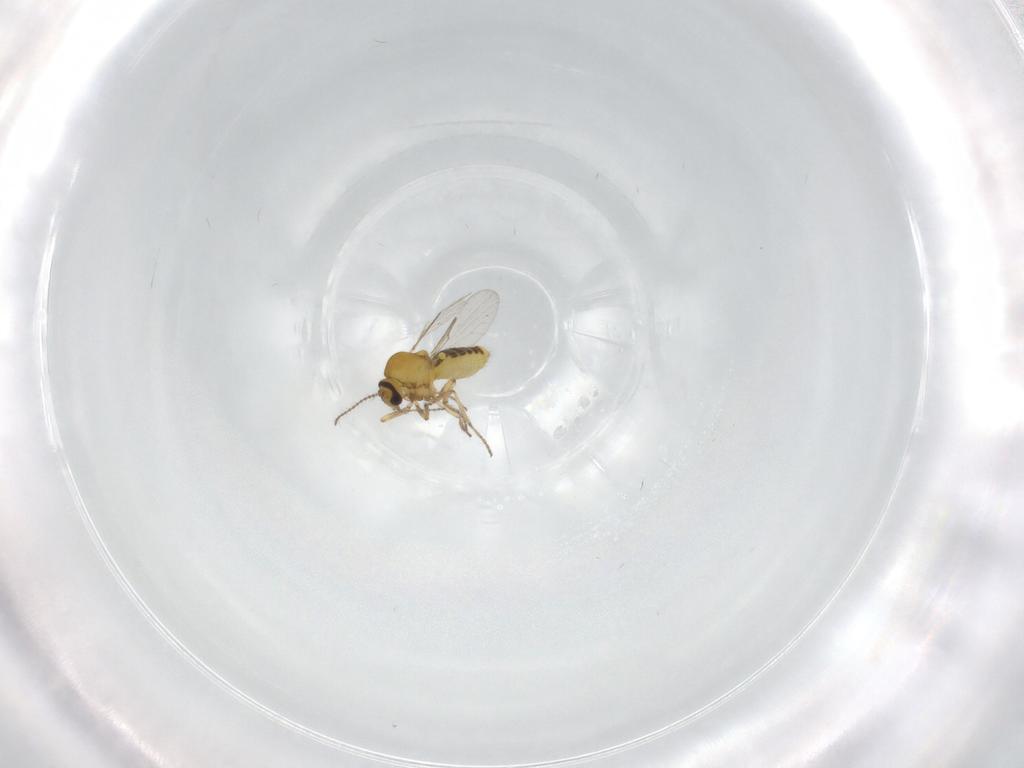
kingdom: Animalia
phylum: Arthropoda
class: Insecta
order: Diptera
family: Ceratopogonidae
